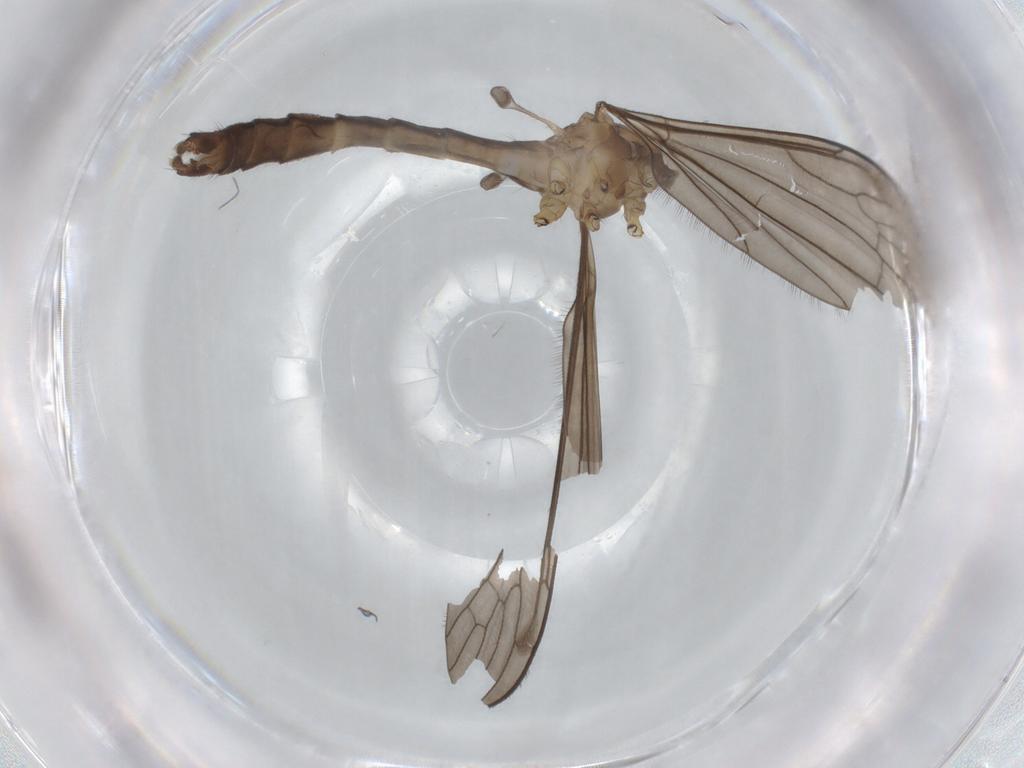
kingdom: Animalia
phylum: Arthropoda
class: Insecta
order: Diptera
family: Limoniidae
